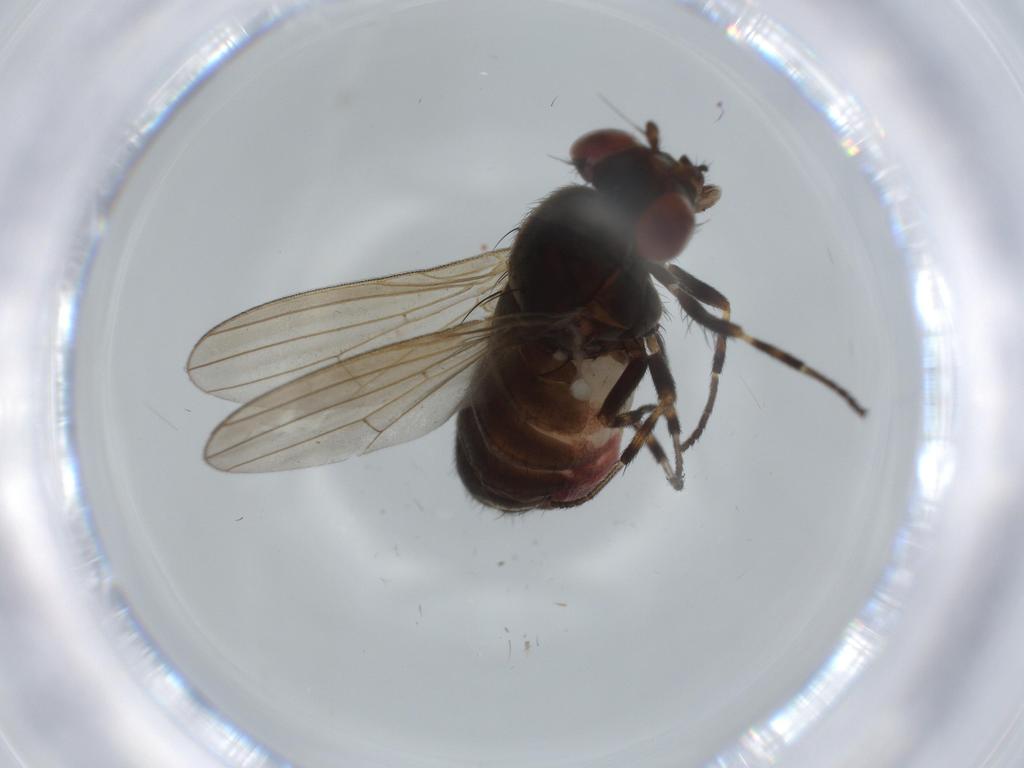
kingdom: Animalia
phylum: Arthropoda
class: Insecta
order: Diptera
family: Lauxaniidae
